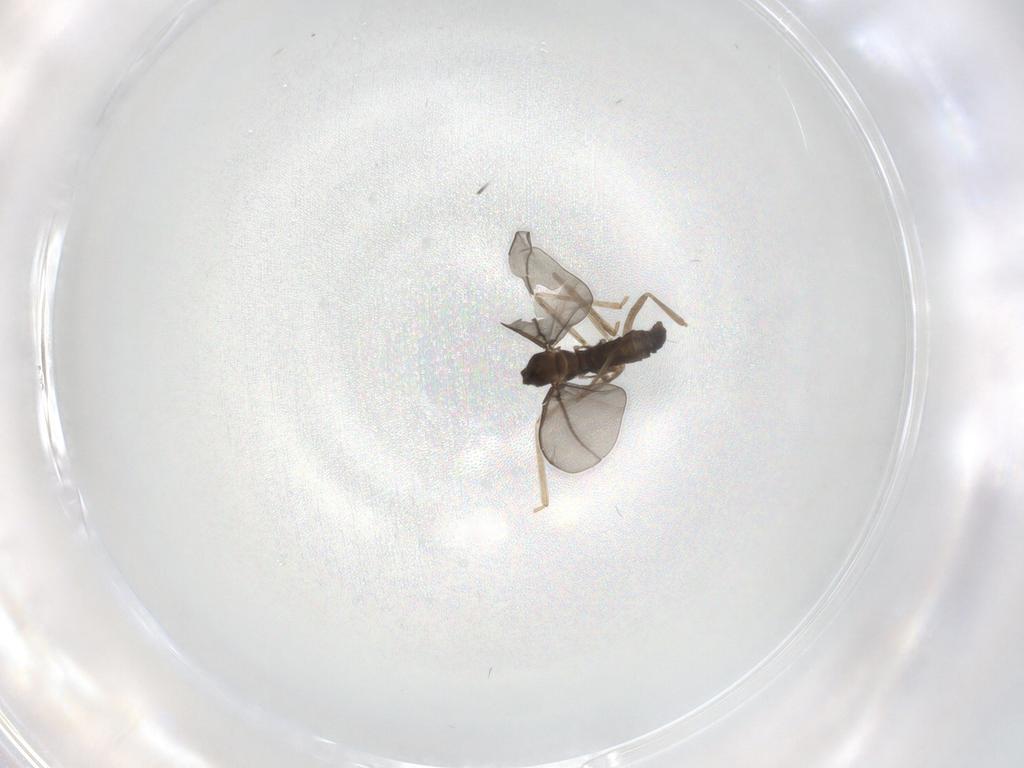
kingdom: Animalia
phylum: Arthropoda
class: Insecta
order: Diptera
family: Cecidomyiidae
